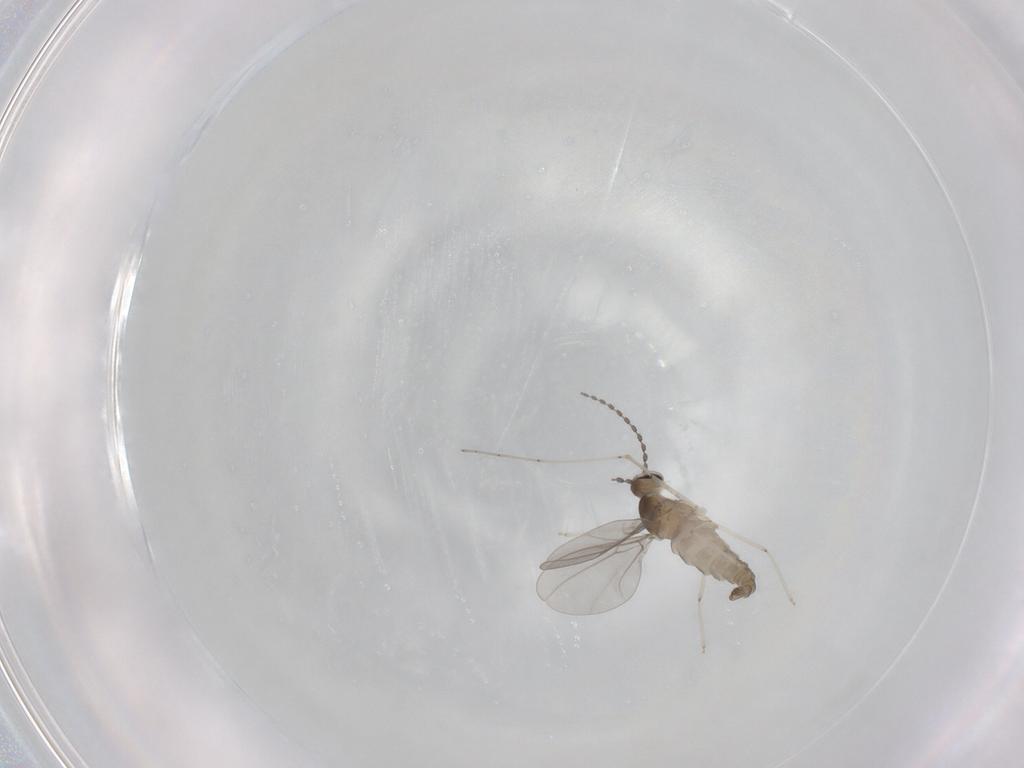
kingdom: Animalia
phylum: Arthropoda
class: Insecta
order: Diptera
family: Cecidomyiidae
